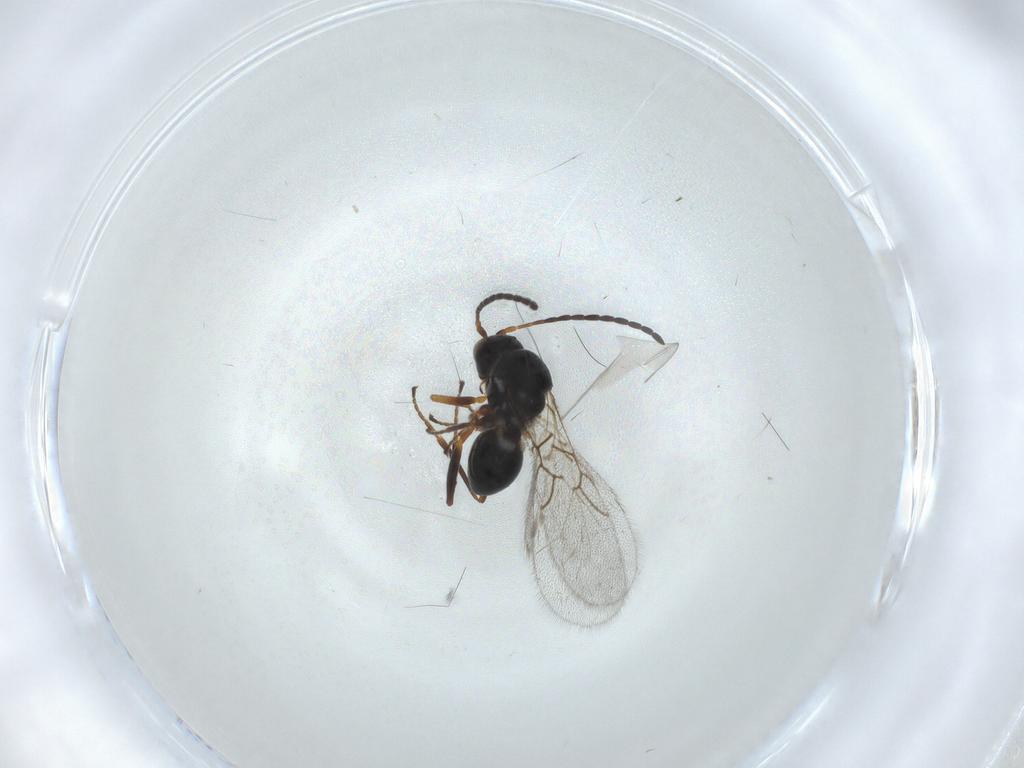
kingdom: Animalia
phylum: Arthropoda
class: Insecta
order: Hymenoptera
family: Figitidae
